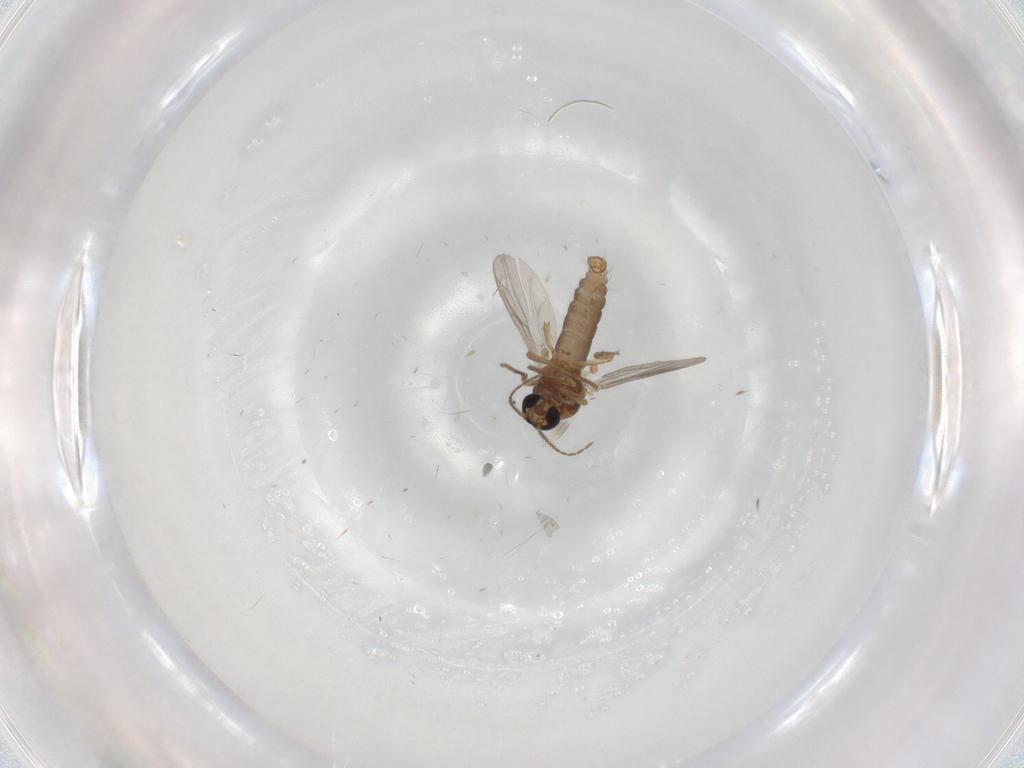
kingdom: Animalia
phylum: Arthropoda
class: Insecta
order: Diptera
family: Ceratopogonidae
